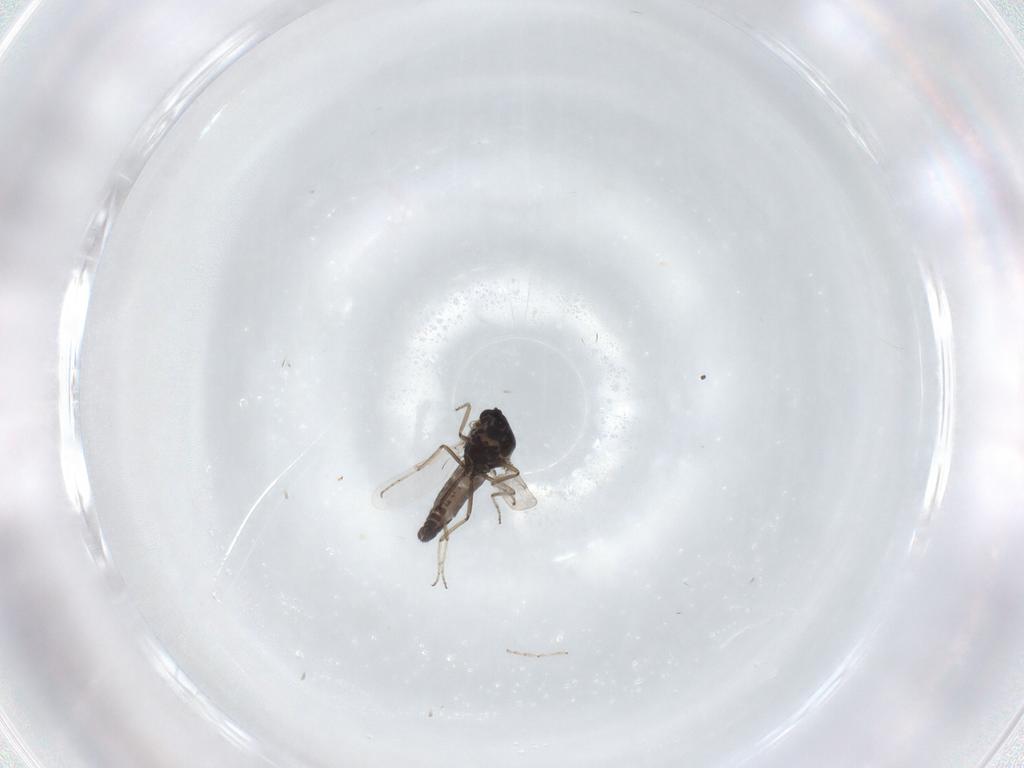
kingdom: Animalia
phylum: Arthropoda
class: Insecta
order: Diptera
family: Ceratopogonidae
